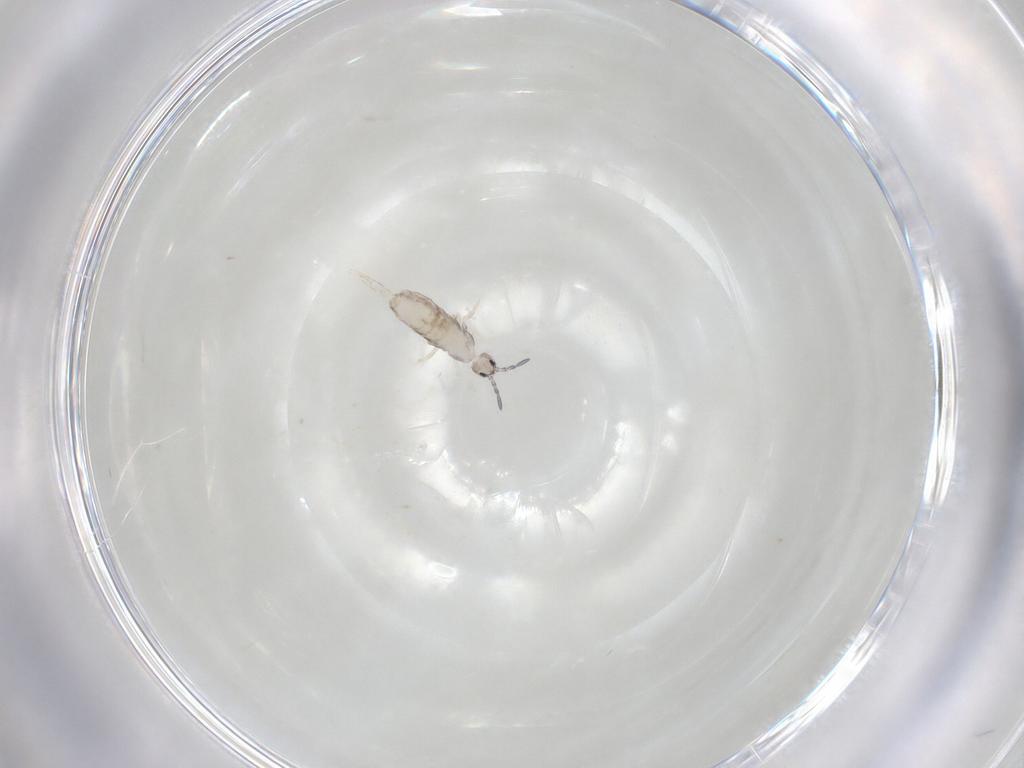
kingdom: Animalia
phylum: Arthropoda
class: Collembola
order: Entomobryomorpha
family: Entomobryidae
